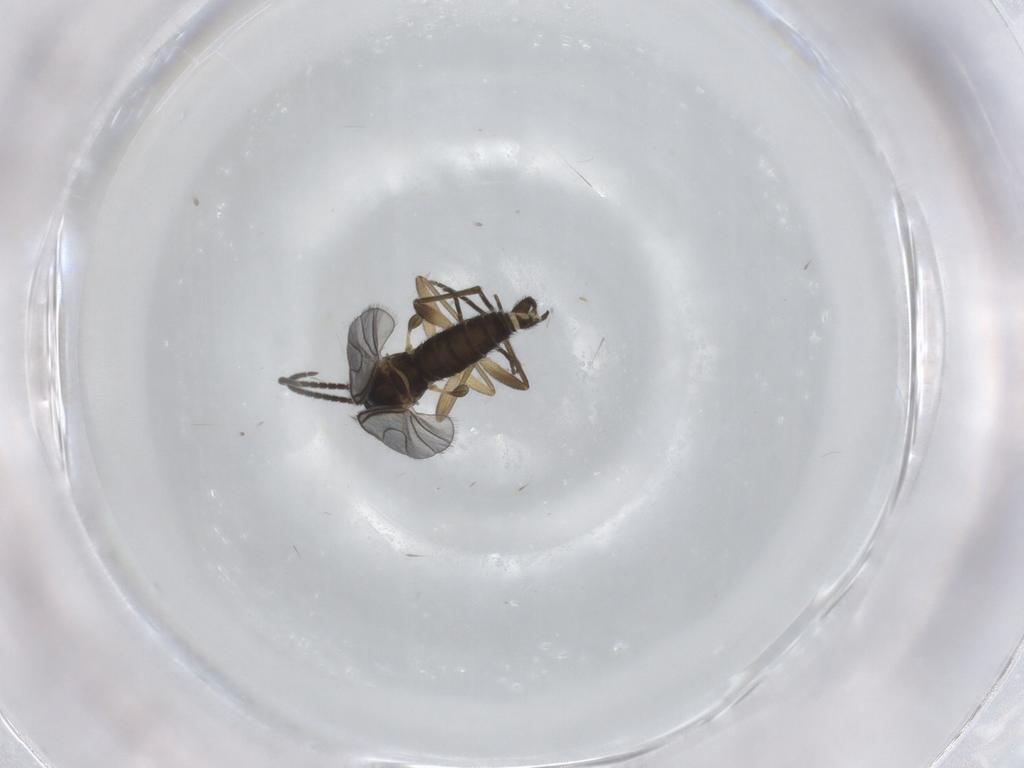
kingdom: Animalia
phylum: Arthropoda
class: Insecta
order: Diptera
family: Sciaridae
